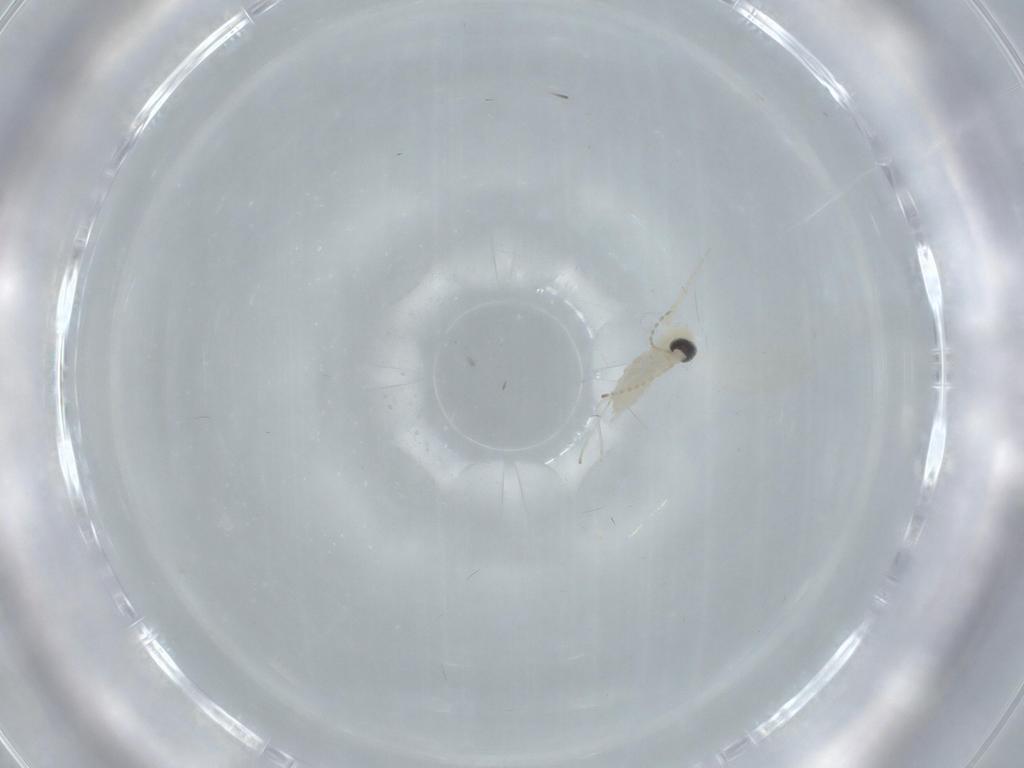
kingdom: Animalia
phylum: Arthropoda
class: Insecta
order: Diptera
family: Cecidomyiidae
